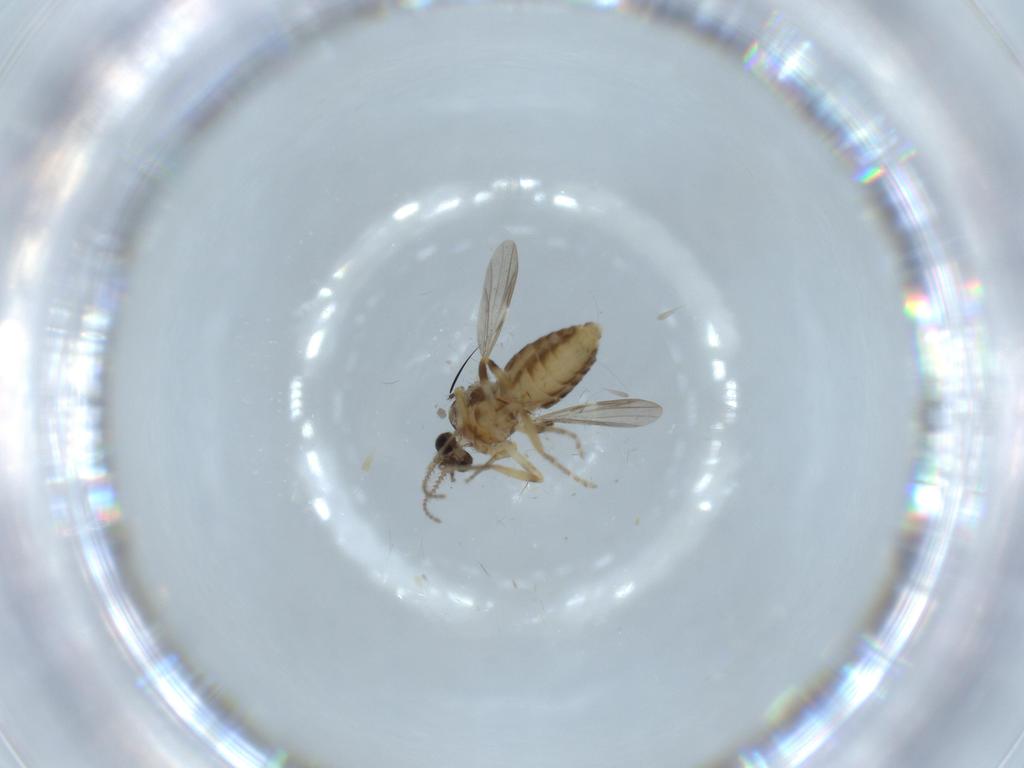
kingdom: Animalia
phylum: Arthropoda
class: Insecta
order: Diptera
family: Ceratopogonidae
